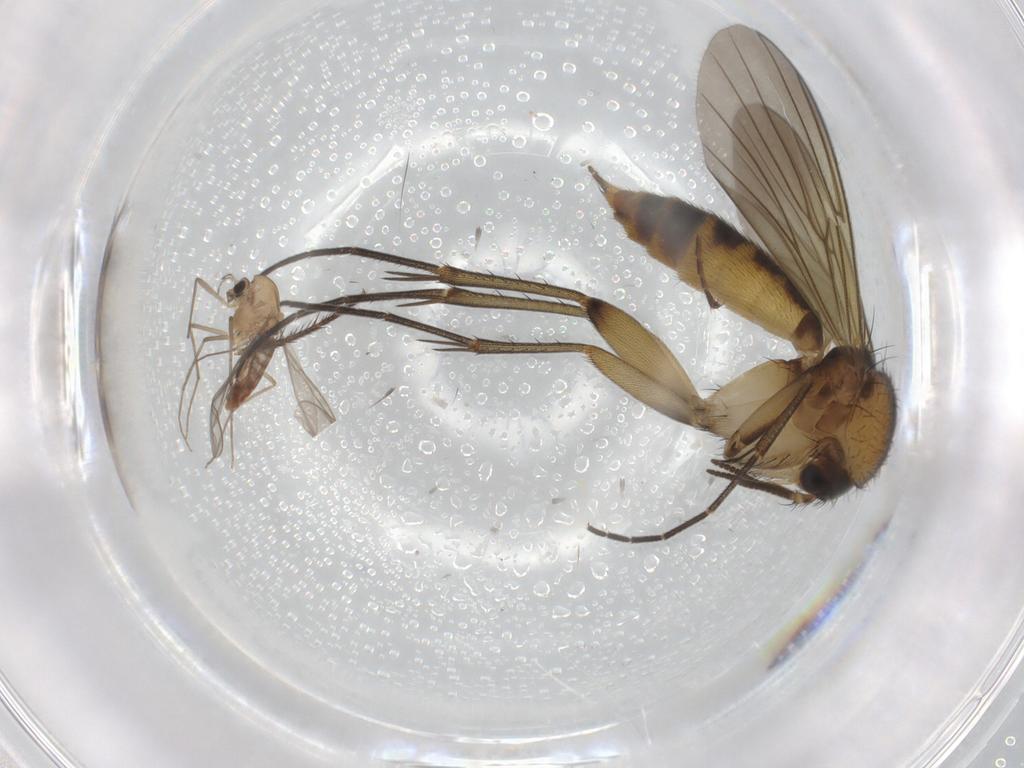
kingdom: Animalia
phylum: Arthropoda
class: Insecta
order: Diptera
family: Chironomidae
